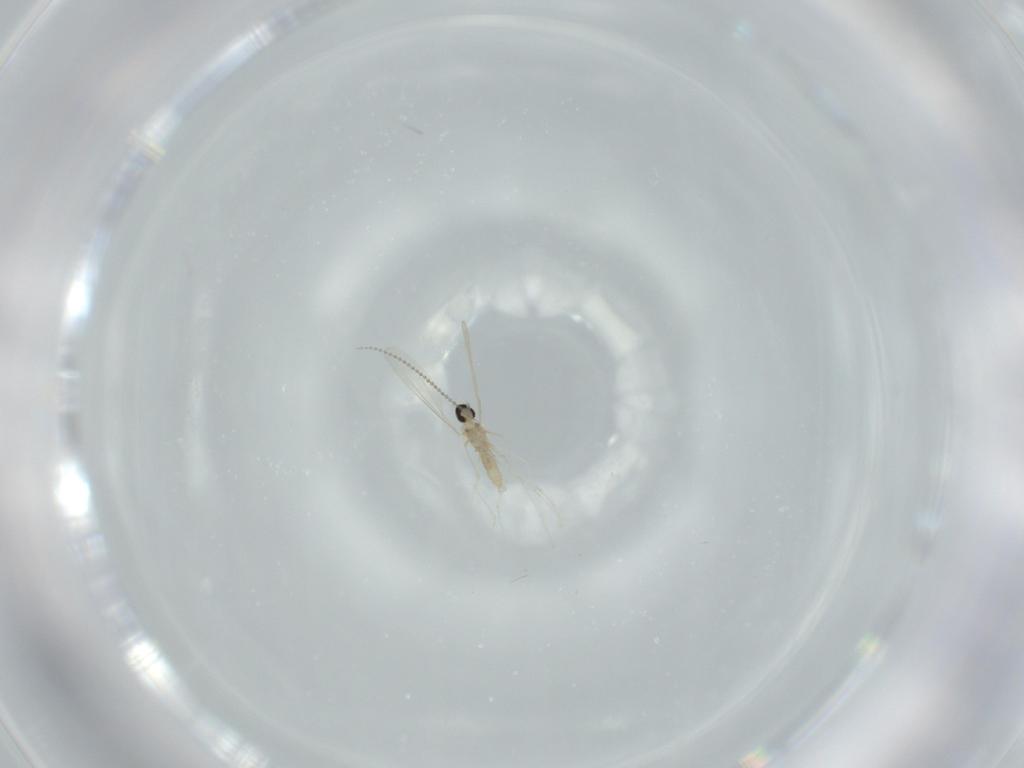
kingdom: Animalia
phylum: Arthropoda
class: Insecta
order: Diptera
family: Cecidomyiidae
